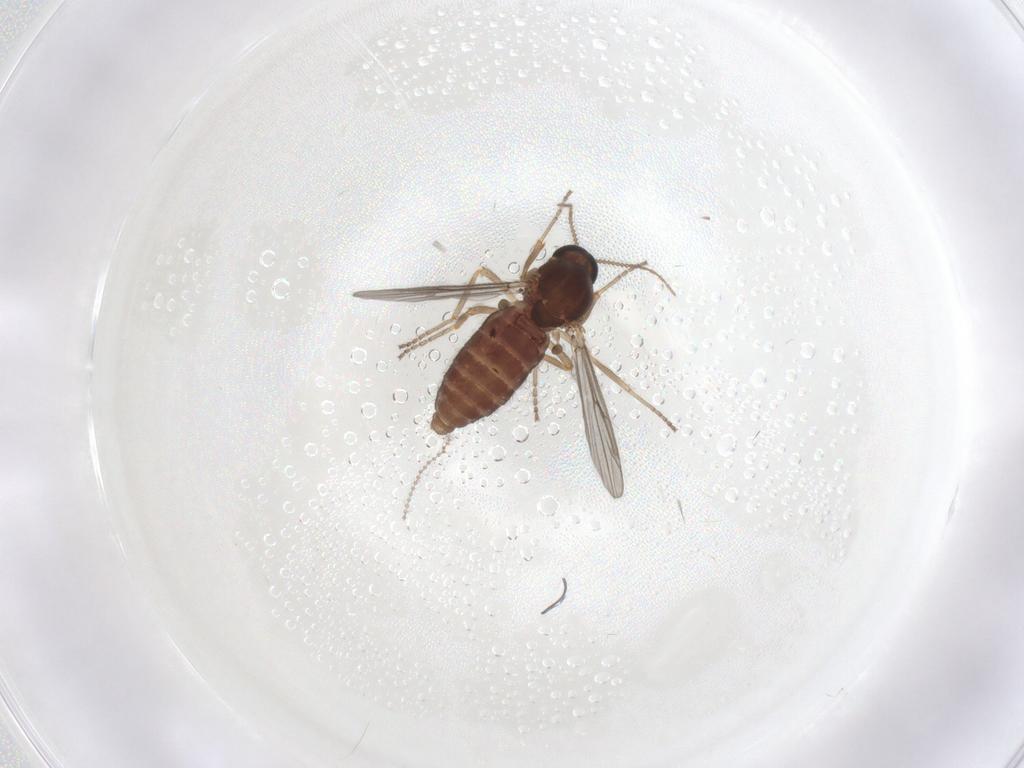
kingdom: Animalia
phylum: Arthropoda
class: Insecta
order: Diptera
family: Ceratopogonidae
